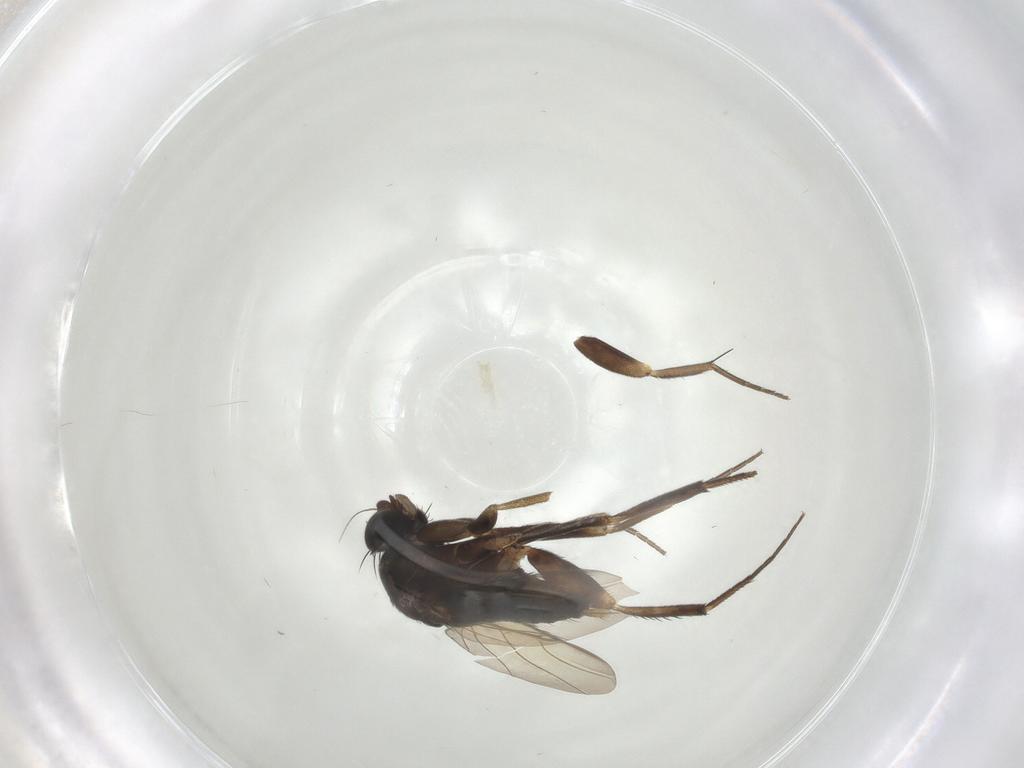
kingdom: Animalia
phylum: Arthropoda
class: Insecta
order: Diptera
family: Phoridae
